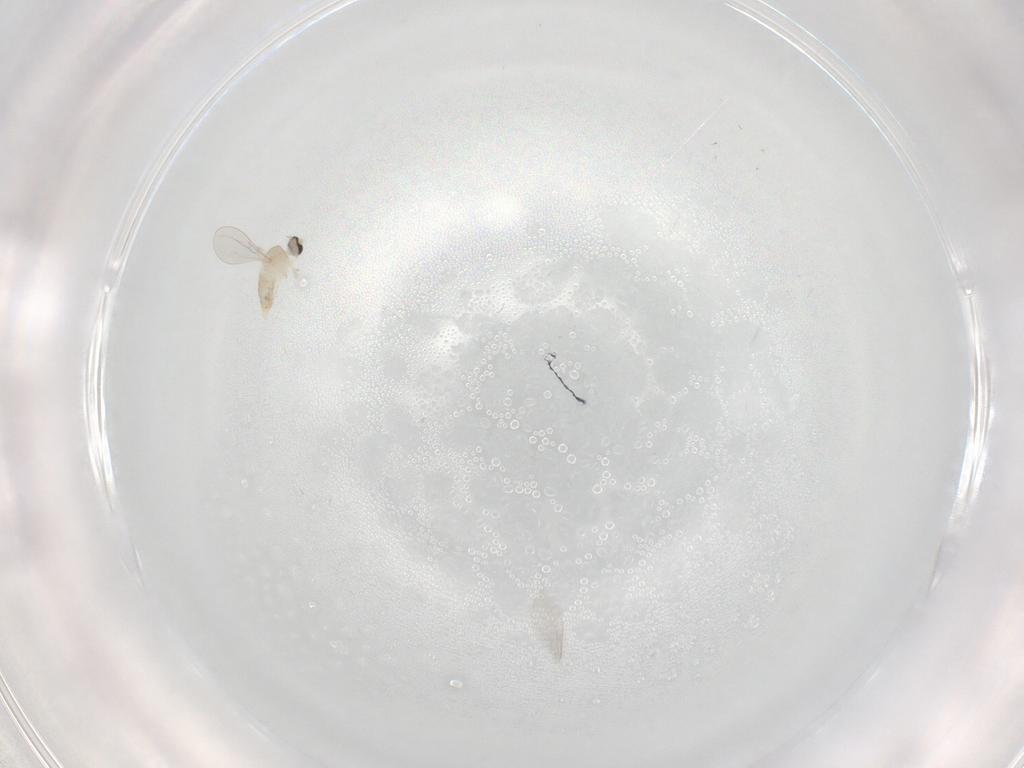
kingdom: Animalia
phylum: Arthropoda
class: Insecta
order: Diptera
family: Cecidomyiidae
